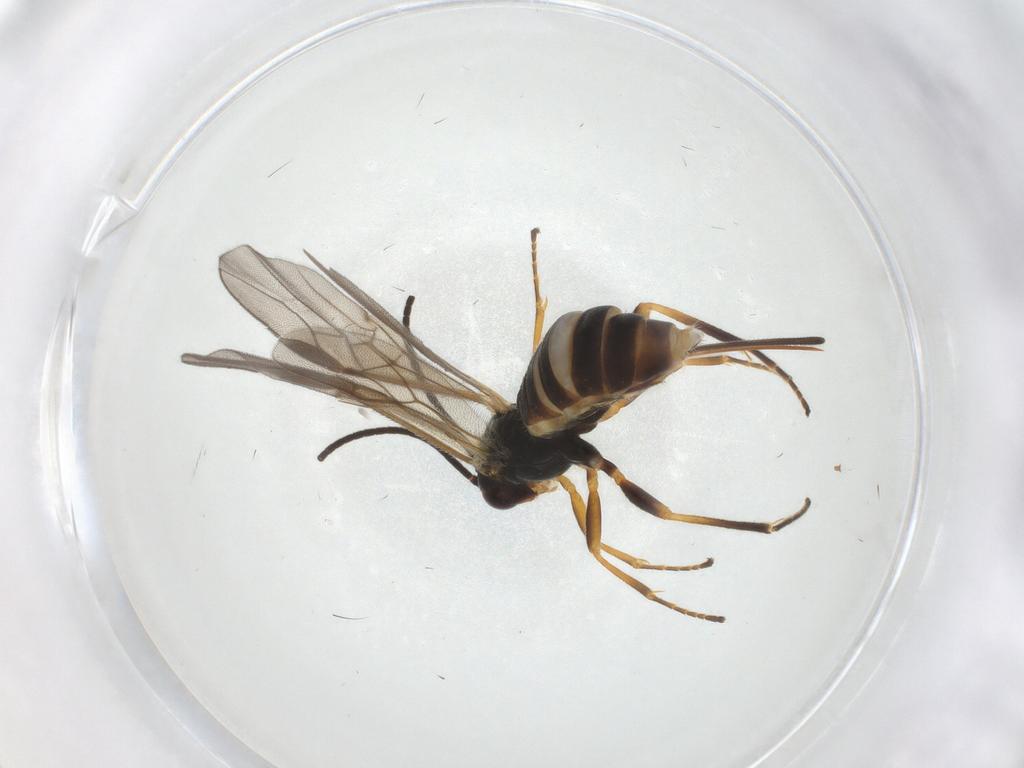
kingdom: Animalia
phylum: Arthropoda
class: Insecta
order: Hymenoptera
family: Braconidae
